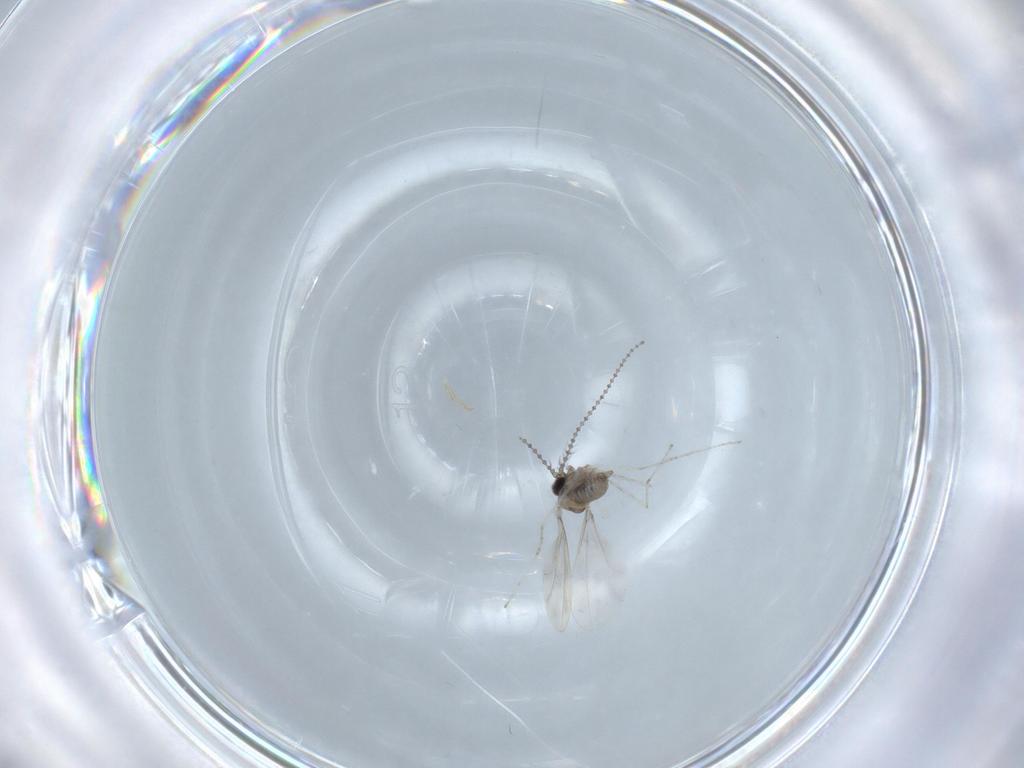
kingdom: Animalia
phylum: Arthropoda
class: Insecta
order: Diptera
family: Cecidomyiidae
